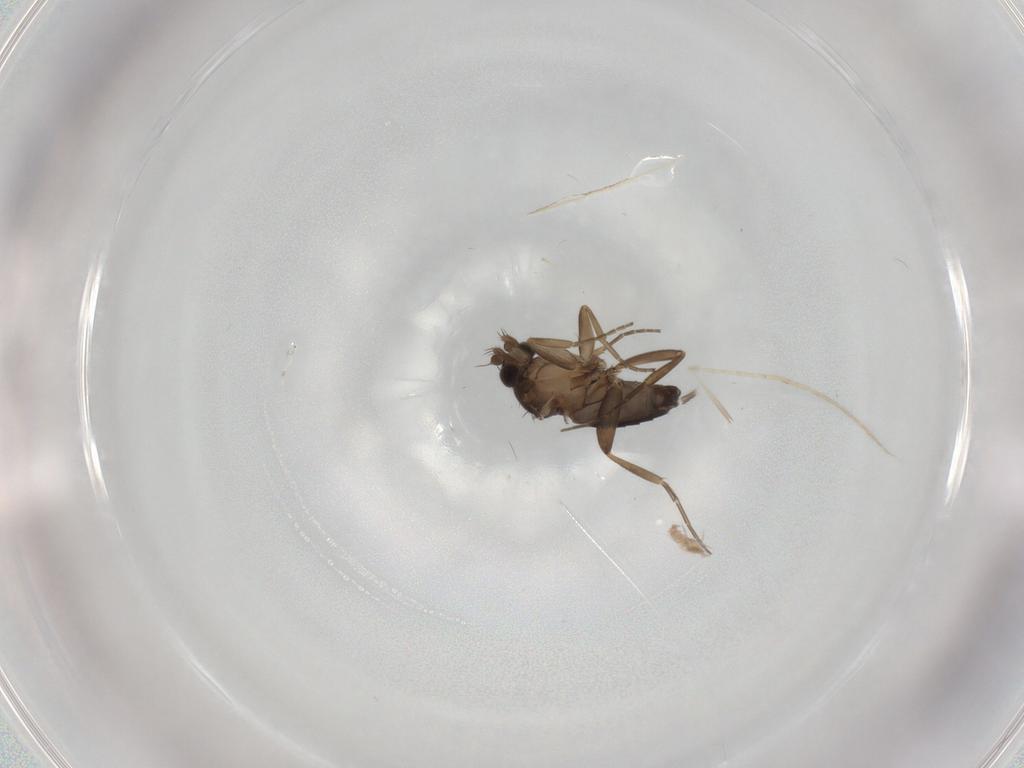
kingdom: Animalia
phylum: Arthropoda
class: Insecta
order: Diptera
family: Phoridae
